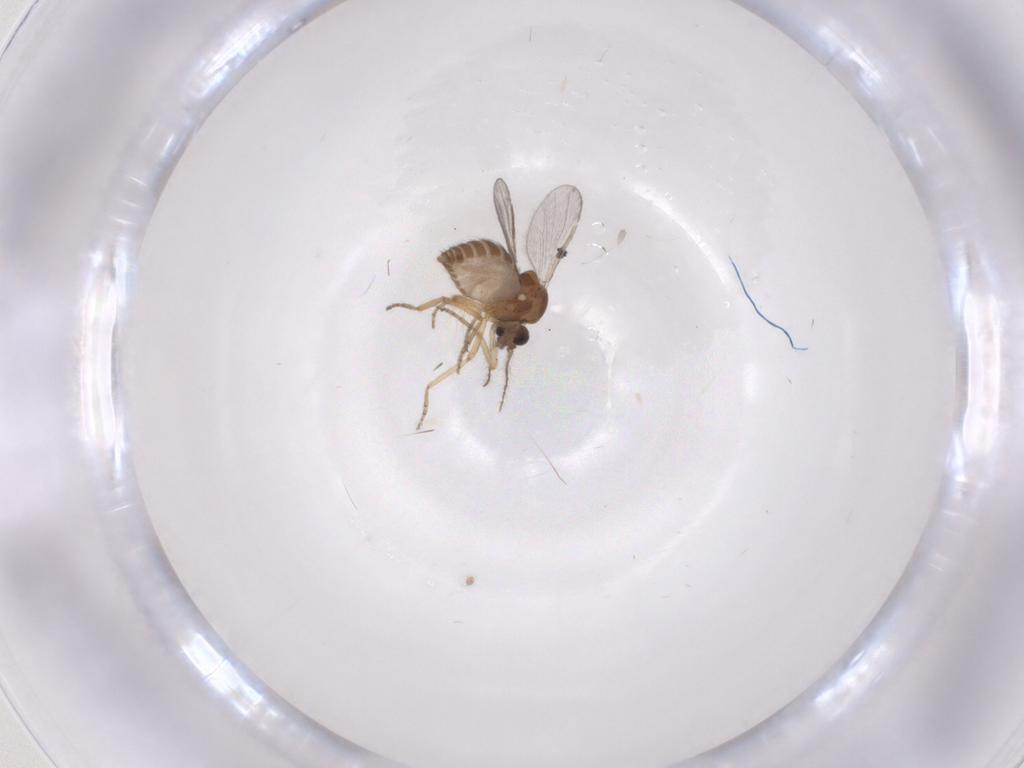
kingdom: Animalia
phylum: Arthropoda
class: Insecta
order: Diptera
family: Ceratopogonidae
